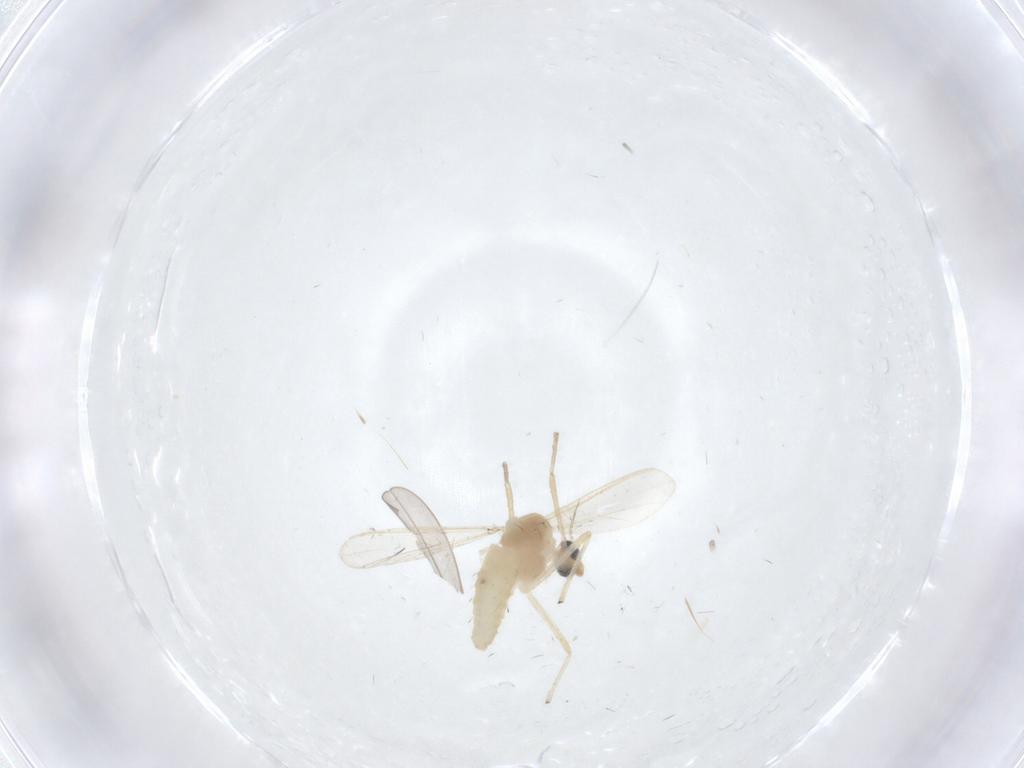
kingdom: Animalia
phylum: Arthropoda
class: Insecta
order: Diptera
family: Chironomidae
